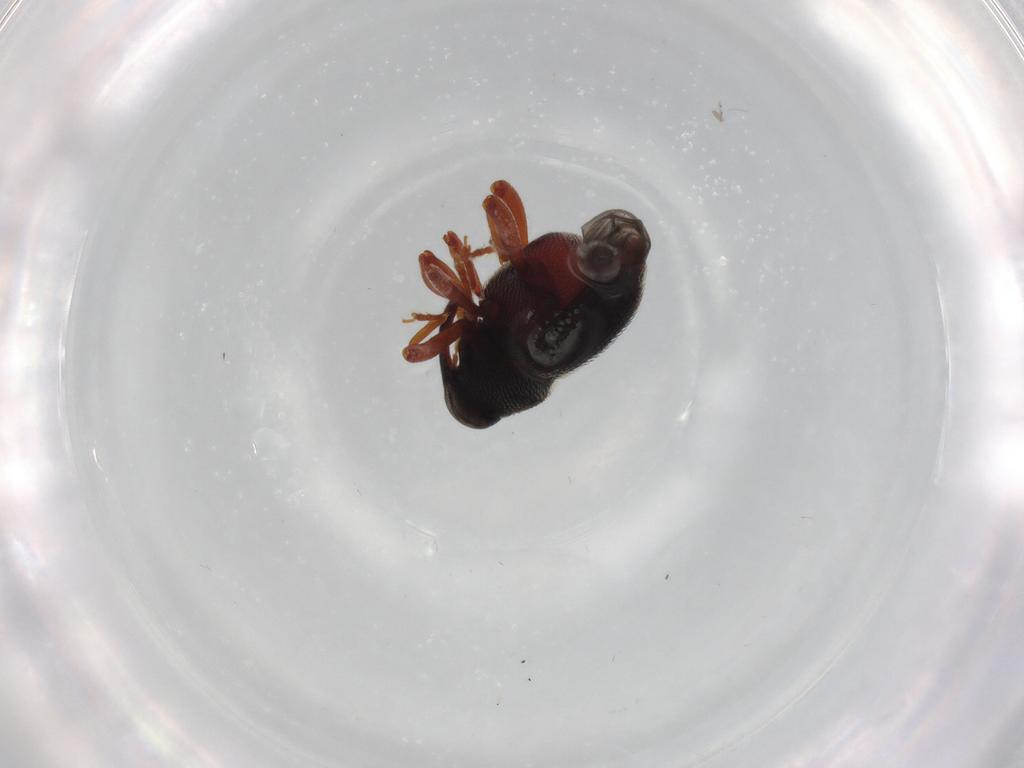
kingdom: Animalia
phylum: Arthropoda
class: Insecta
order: Coleoptera
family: Curculionidae
